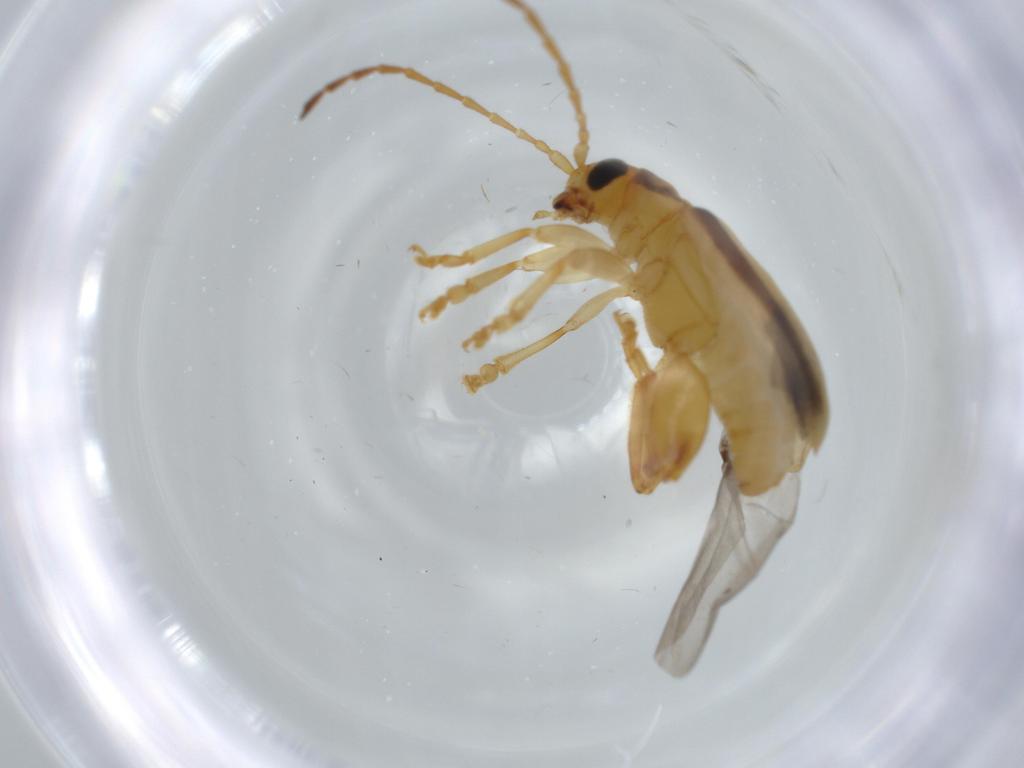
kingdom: Animalia
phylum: Arthropoda
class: Insecta
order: Coleoptera
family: Chrysomelidae
